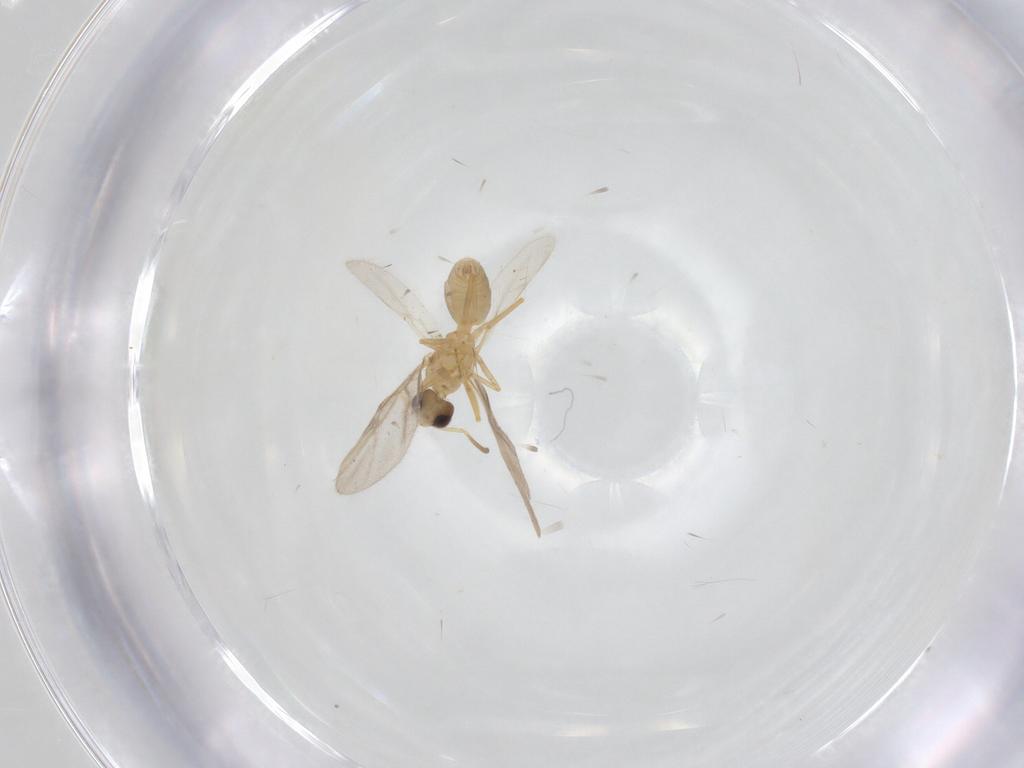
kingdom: Animalia
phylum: Arthropoda
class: Insecta
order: Hymenoptera
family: Formicidae
